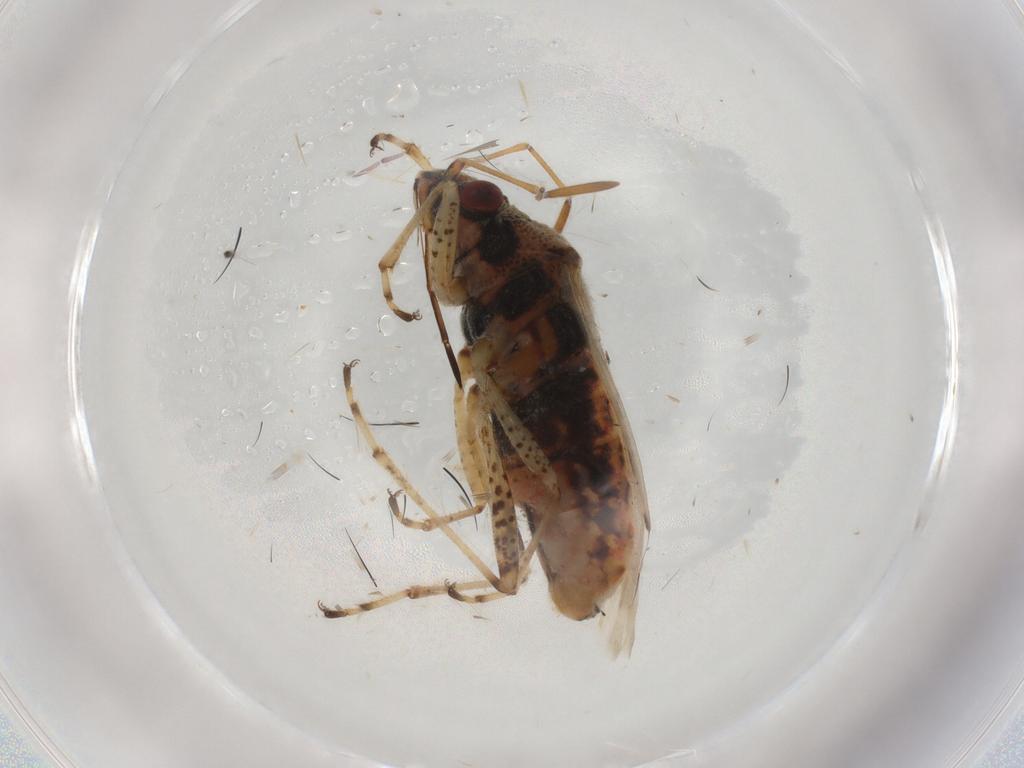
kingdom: Animalia
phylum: Arthropoda
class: Insecta
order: Hemiptera
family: Lygaeidae
